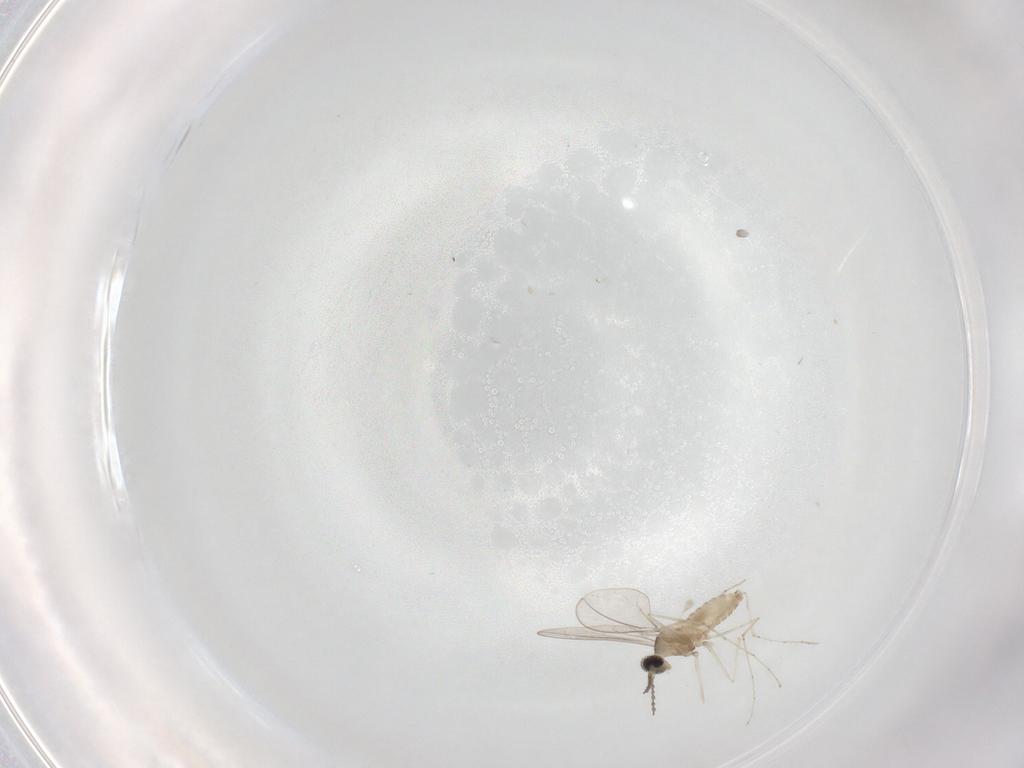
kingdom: Animalia
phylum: Arthropoda
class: Insecta
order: Diptera
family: Cecidomyiidae
